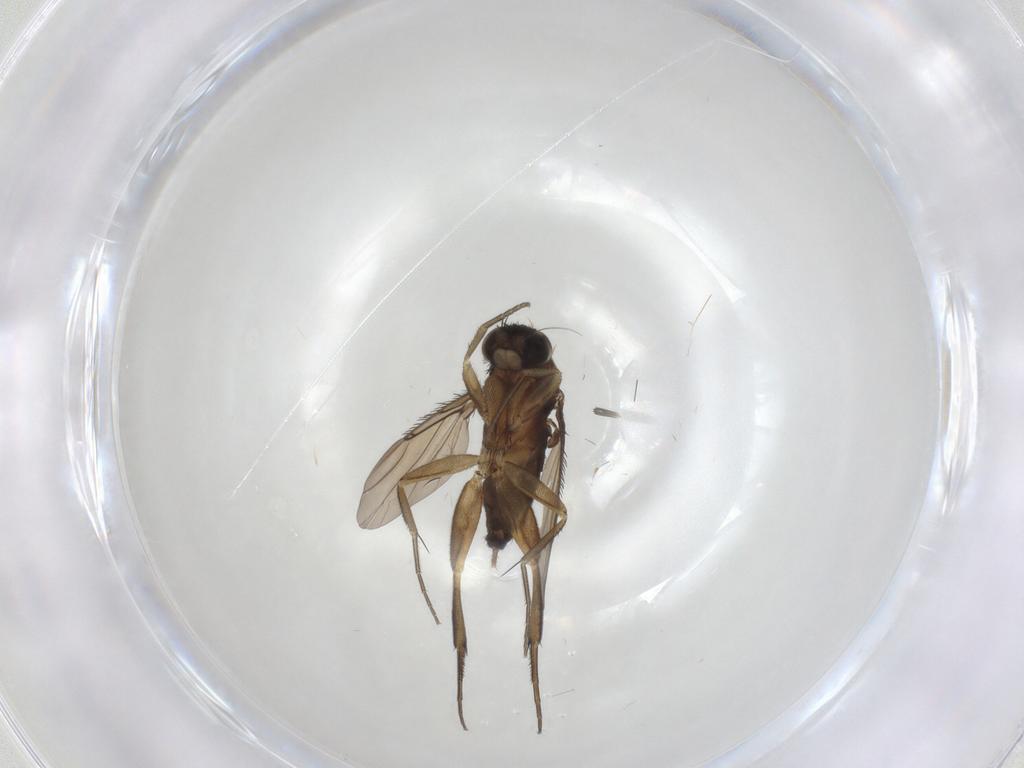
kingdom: Animalia
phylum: Arthropoda
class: Insecta
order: Diptera
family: Phoridae
